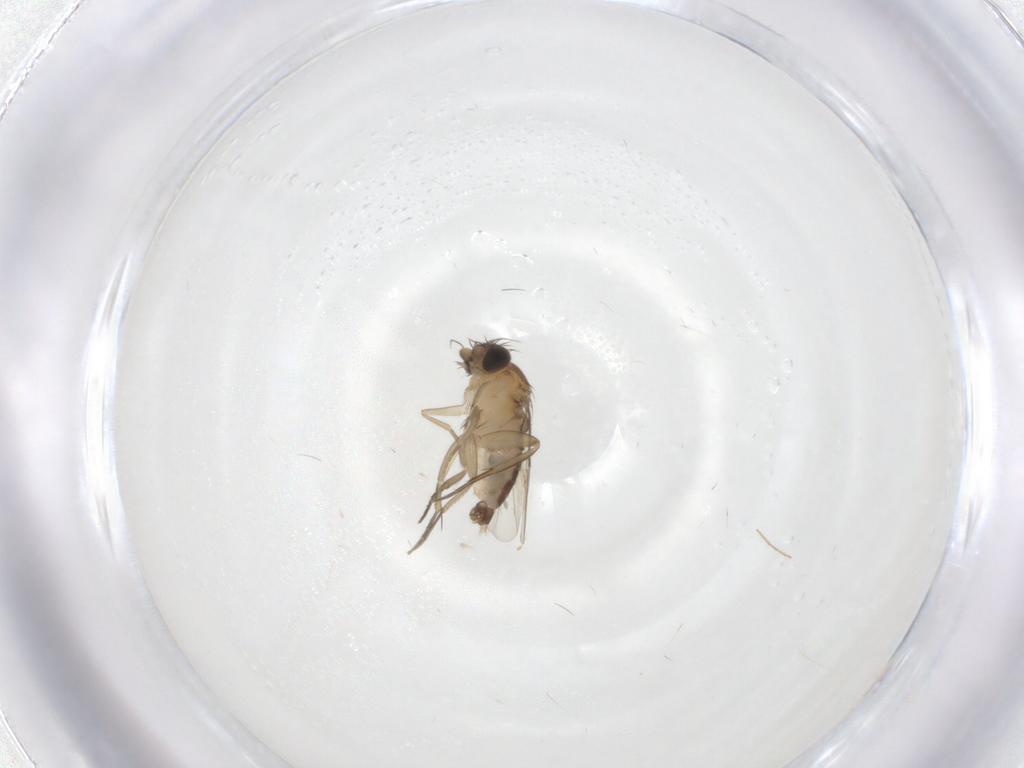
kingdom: Animalia
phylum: Arthropoda
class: Insecta
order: Diptera
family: Phoridae
